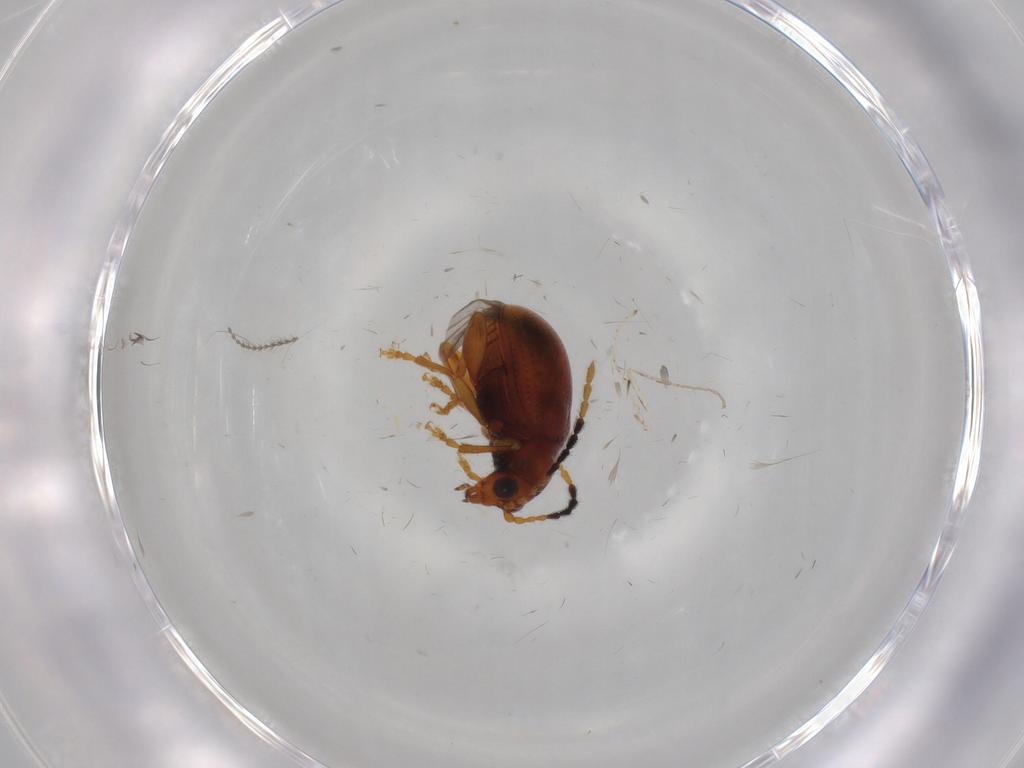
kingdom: Animalia
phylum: Arthropoda
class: Insecta
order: Coleoptera
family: Chrysomelidae
